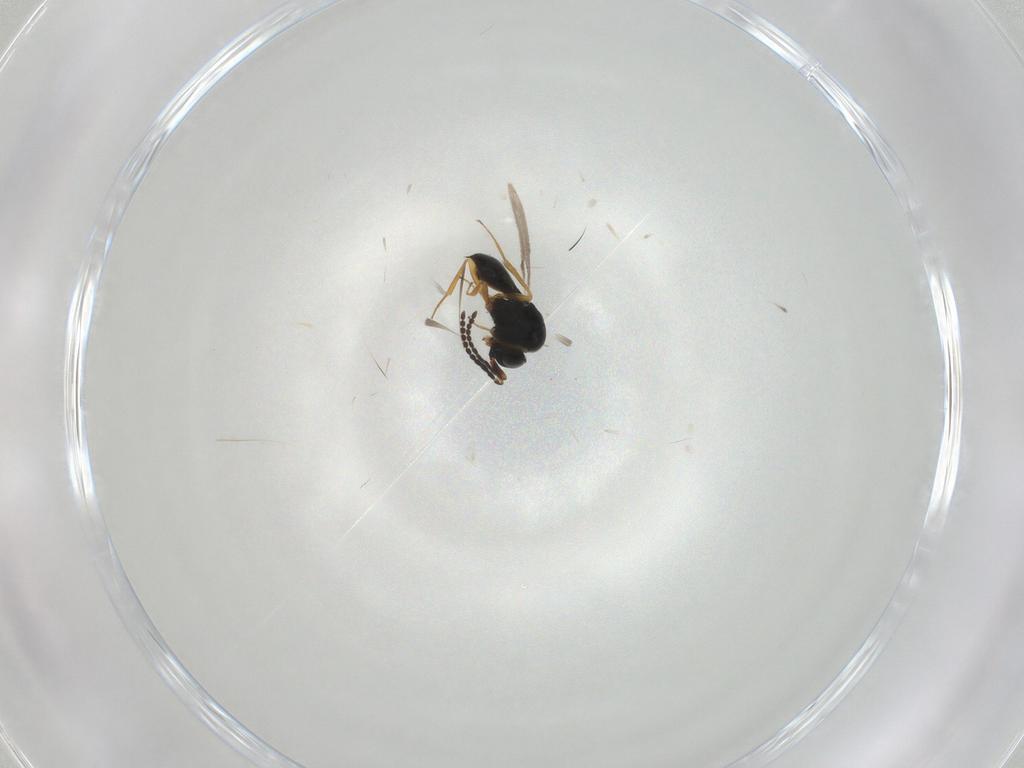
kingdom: Animalia
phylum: Arthropoda
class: Insecta
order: Hymenoptera
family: Scelionidae
